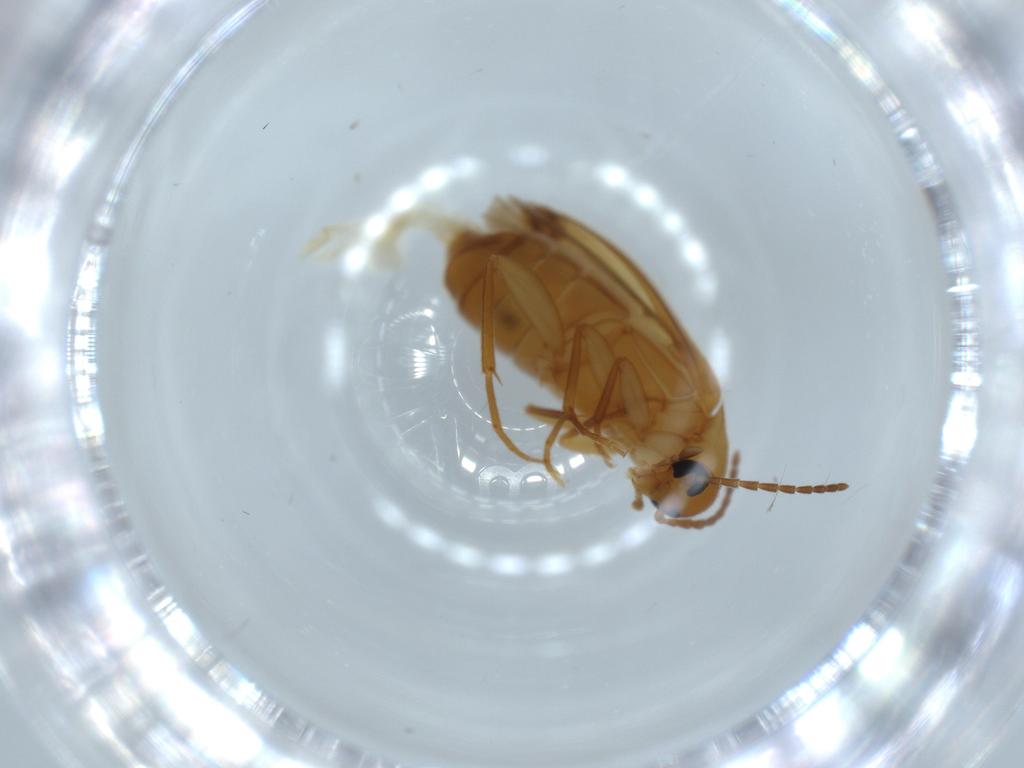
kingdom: Animalia
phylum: Arthropoda
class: Insecta
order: Coleoptera
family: Scraptiidae
